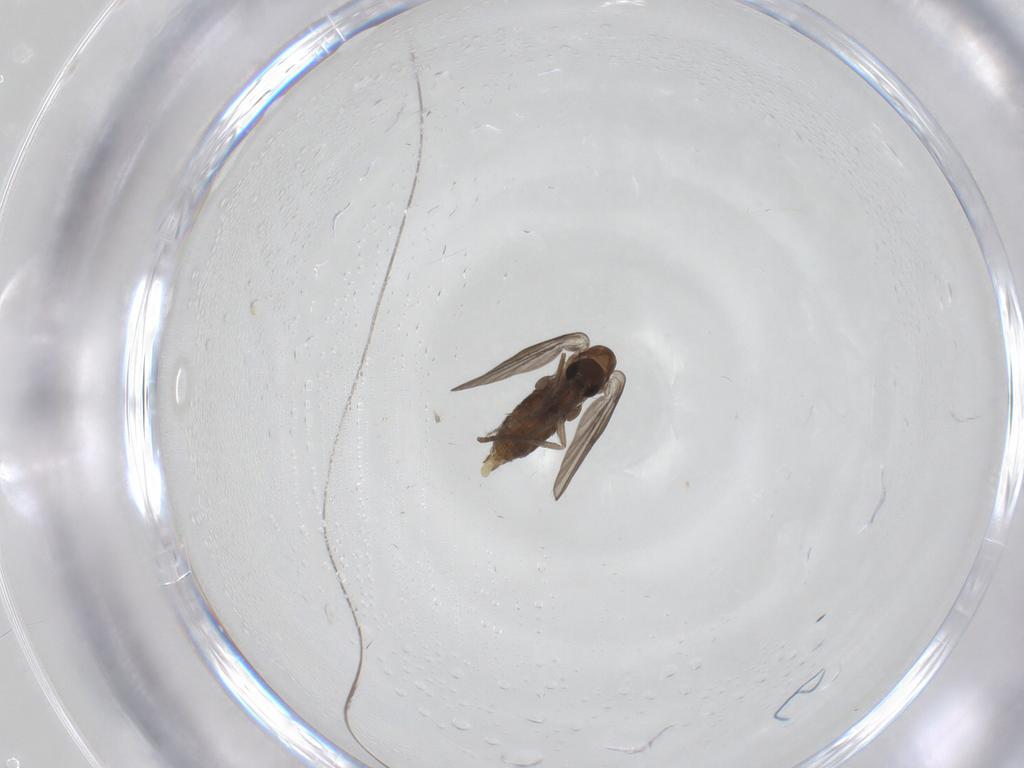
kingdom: Animalia
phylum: Arthropoda
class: Insecta
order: Diptera
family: Psychodidae
